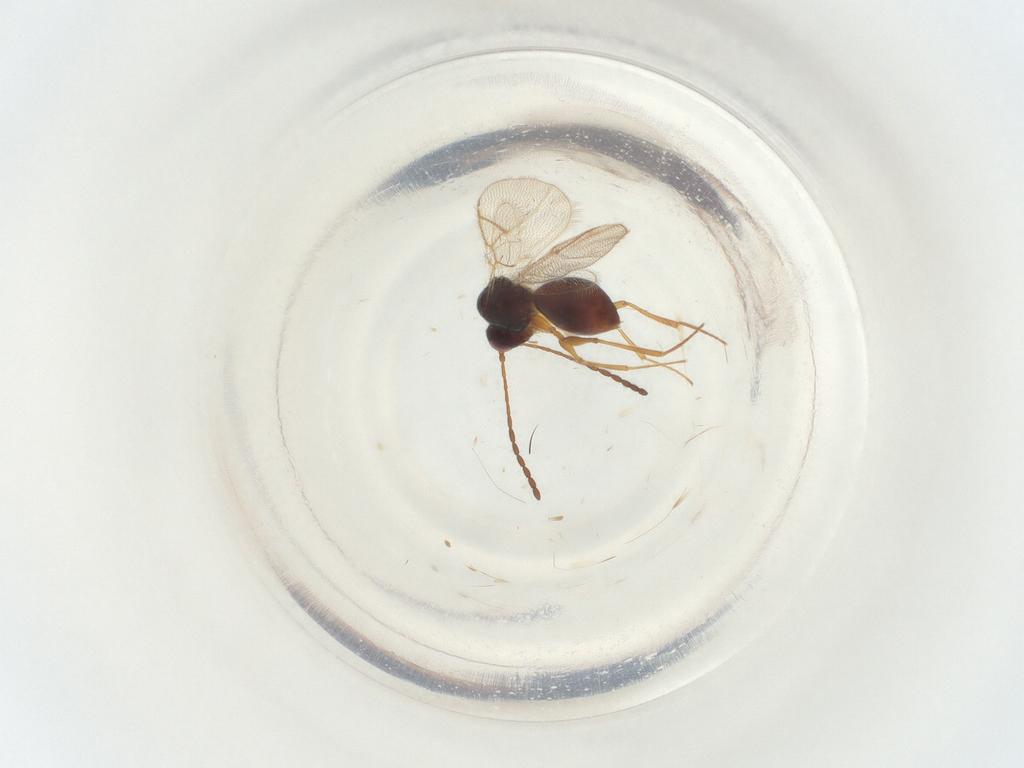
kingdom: Animalia
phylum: Arthropoda
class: Insecta
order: Hymenoptera
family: Figitidae
